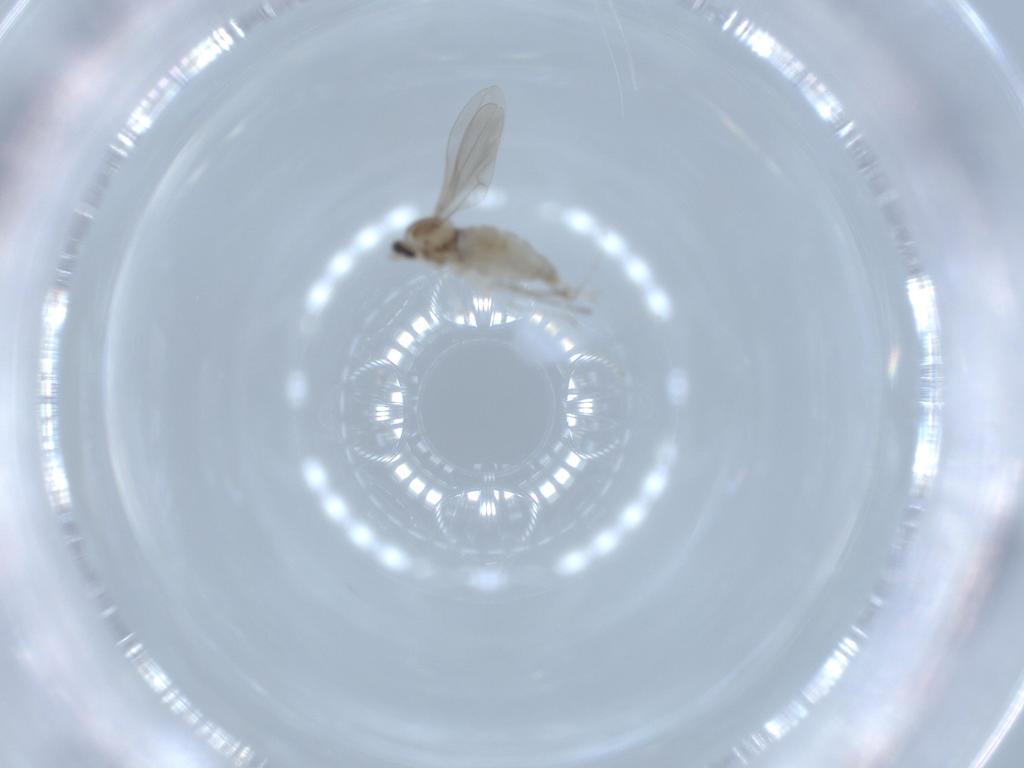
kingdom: Animalia
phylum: Arthropoda
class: Insecta
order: Diptera
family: Cecidomyiidae
